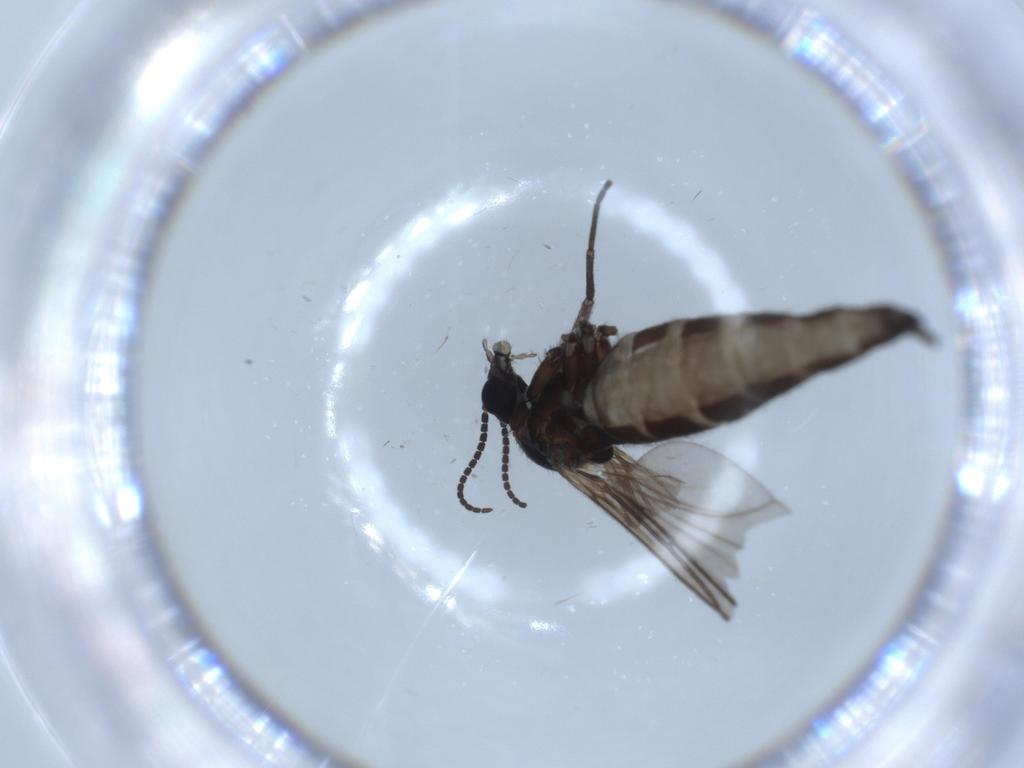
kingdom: Animalia
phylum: Arthropoda
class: Insecta
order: Diptera
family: Sciaridae
